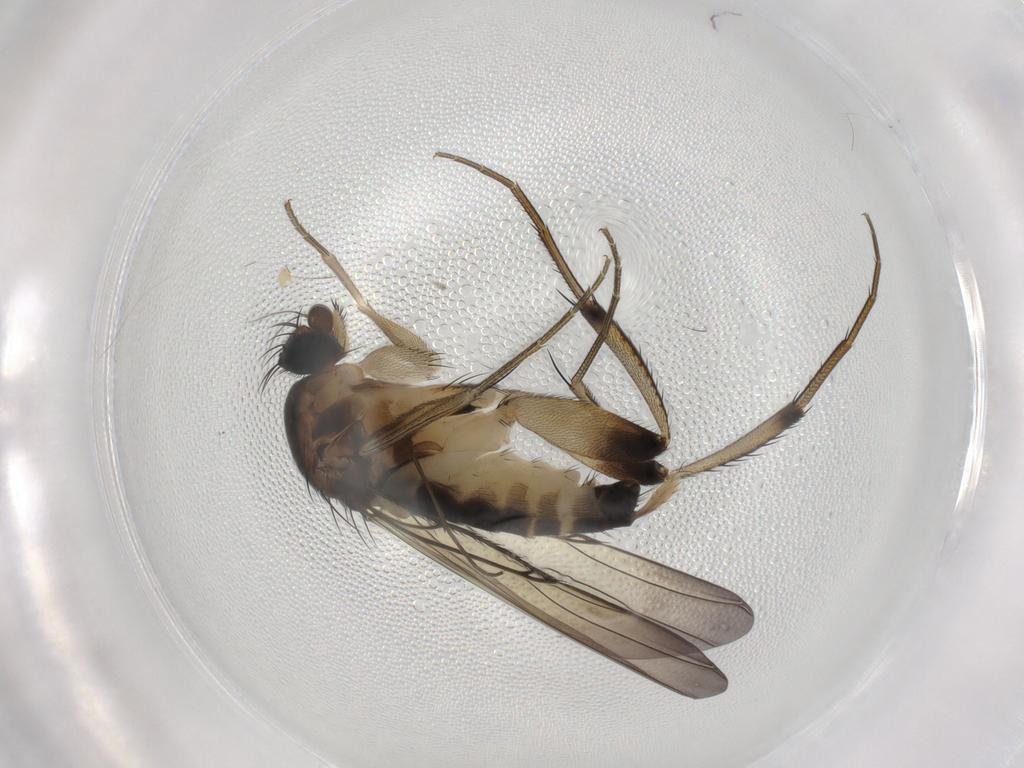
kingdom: Animalia
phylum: Arthropoda
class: Insecta
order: Diptera
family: Phoridae
